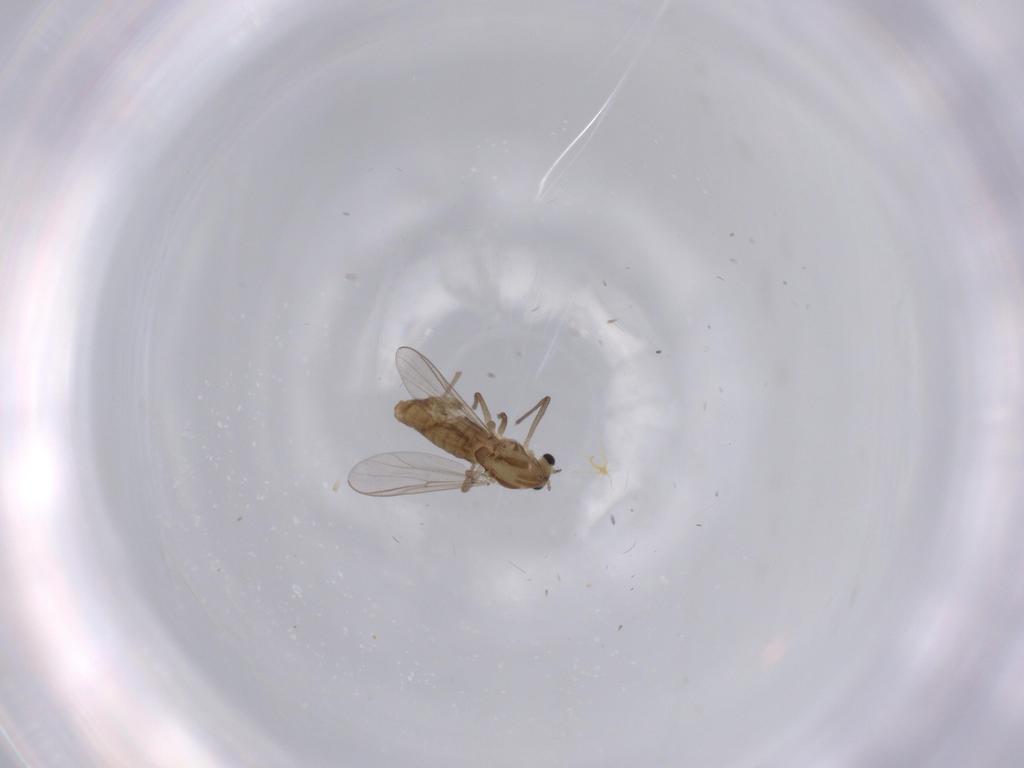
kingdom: Animalia
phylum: Arthropoda
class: Insecta
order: Diptera
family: Chironomidae
